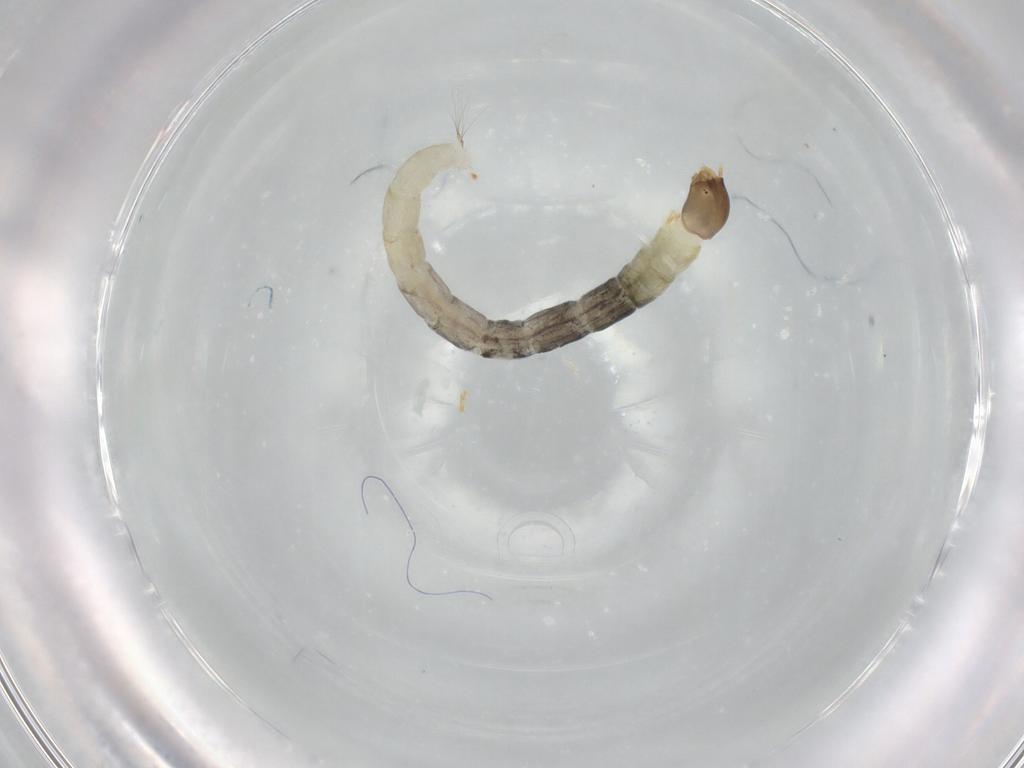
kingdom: Animalia
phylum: Arthropoda
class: Insecta
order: Diptera
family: Chironomidae
